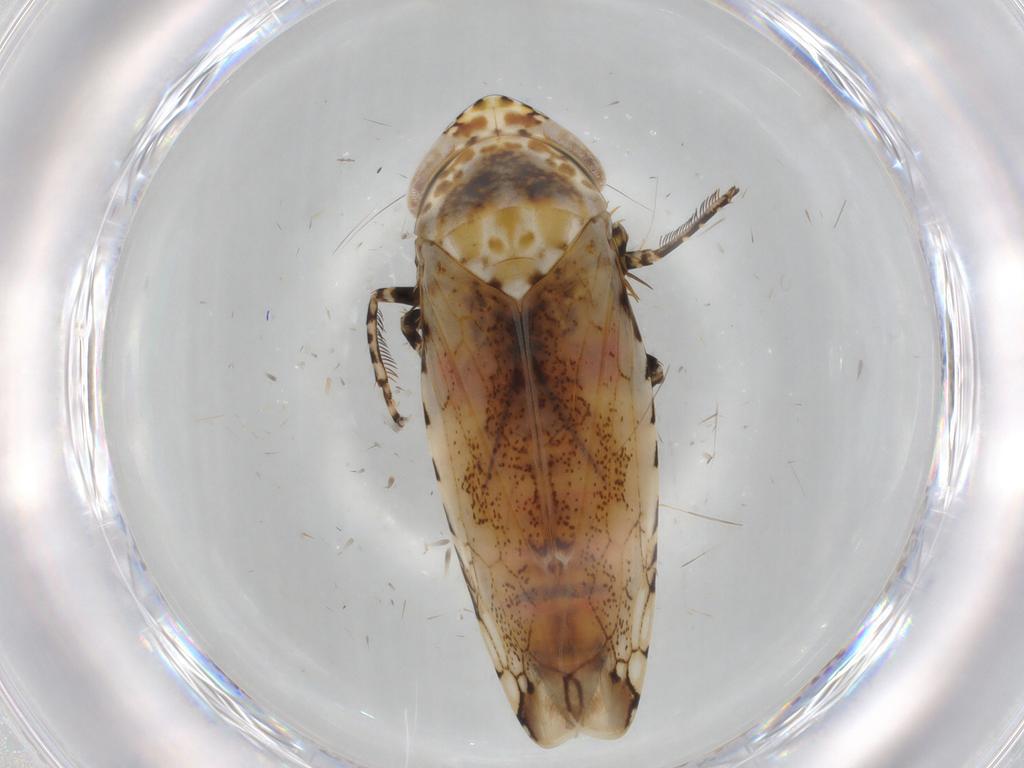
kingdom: Animalia
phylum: Arthropoda
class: Insecta
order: Hemiptera
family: Cicadellidae
